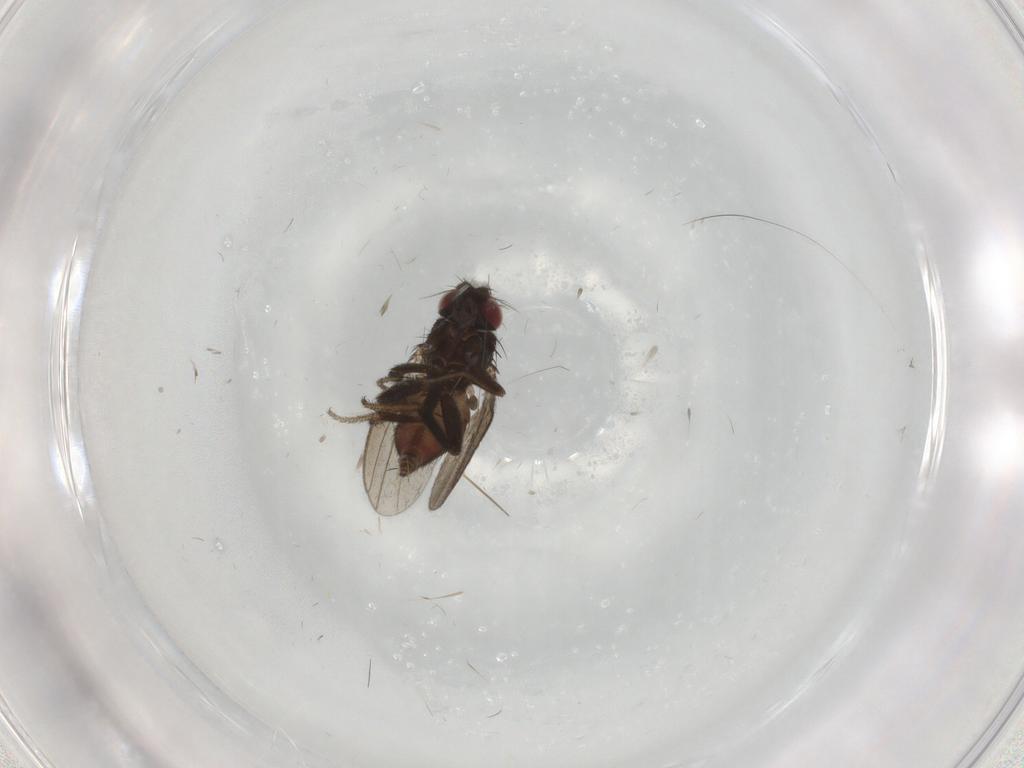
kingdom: Animalia
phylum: Arthropoda
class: Insecta
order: Diptera
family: Milichiidae
